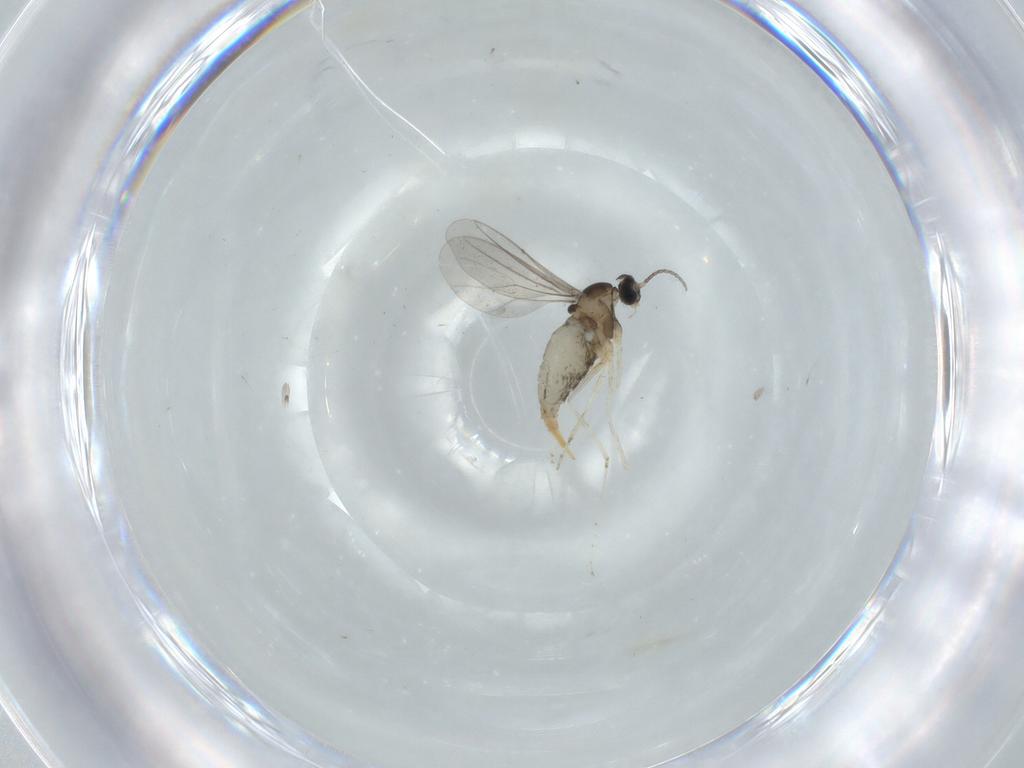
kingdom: Animalia
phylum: Arthropoda
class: Insecta
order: Diptera
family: Cecidomyiidae
